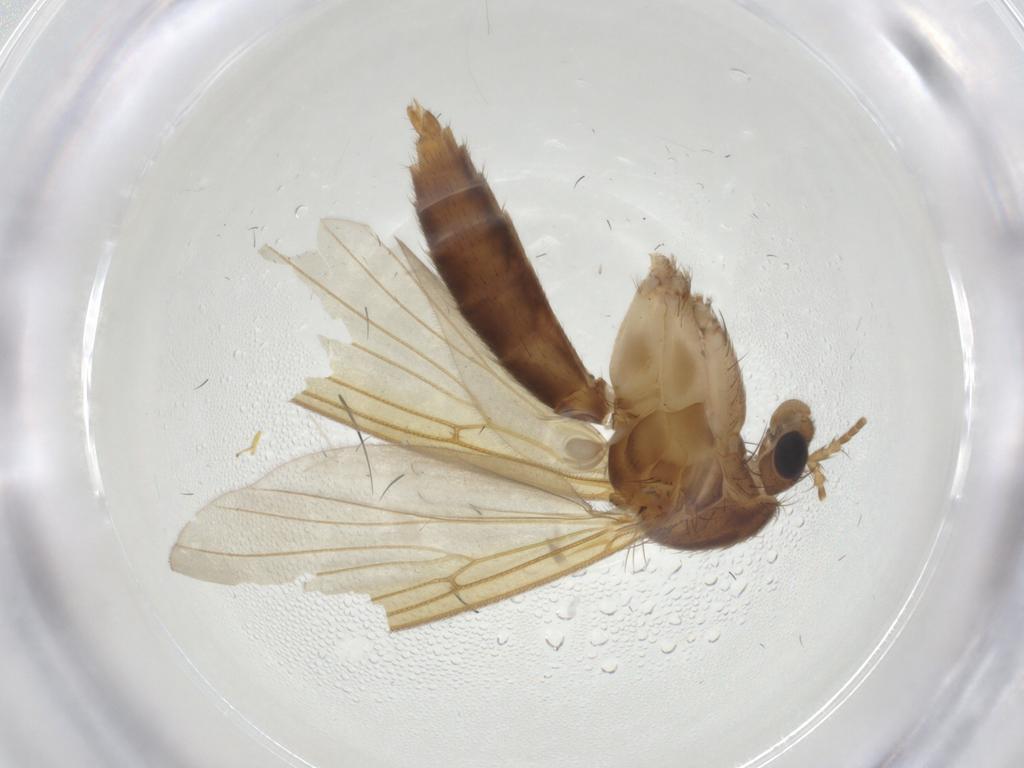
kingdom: Animalia
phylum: Arthropoda
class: Insecta
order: Diptera
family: Mycetophilidae
